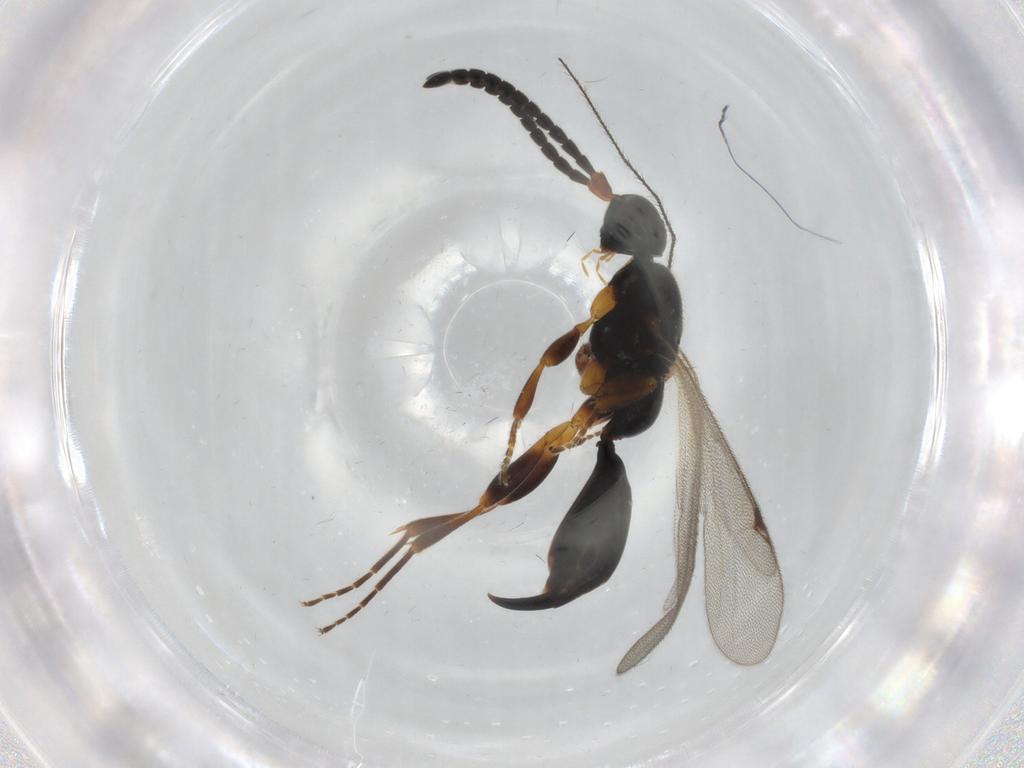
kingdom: Animalia
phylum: Arthropoda
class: Insecta
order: Hymenoptera
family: Proctotrupidae
